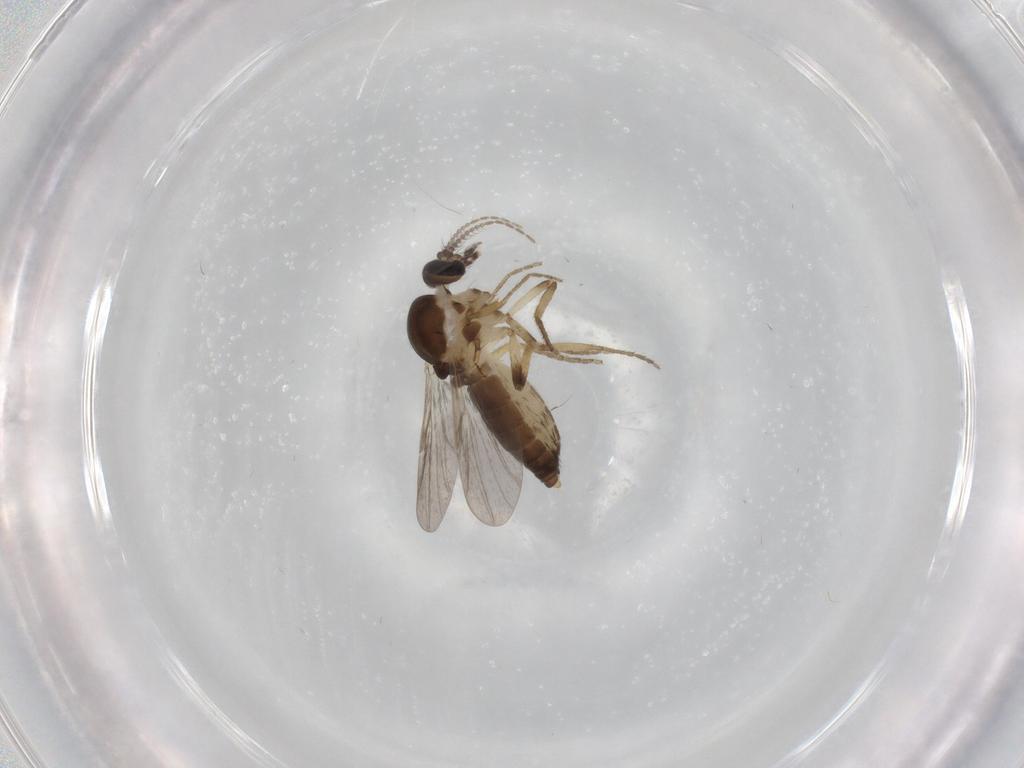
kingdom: Animalia
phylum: Arthropoda
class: Insecta
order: Diptera
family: Ceratopogonidae
